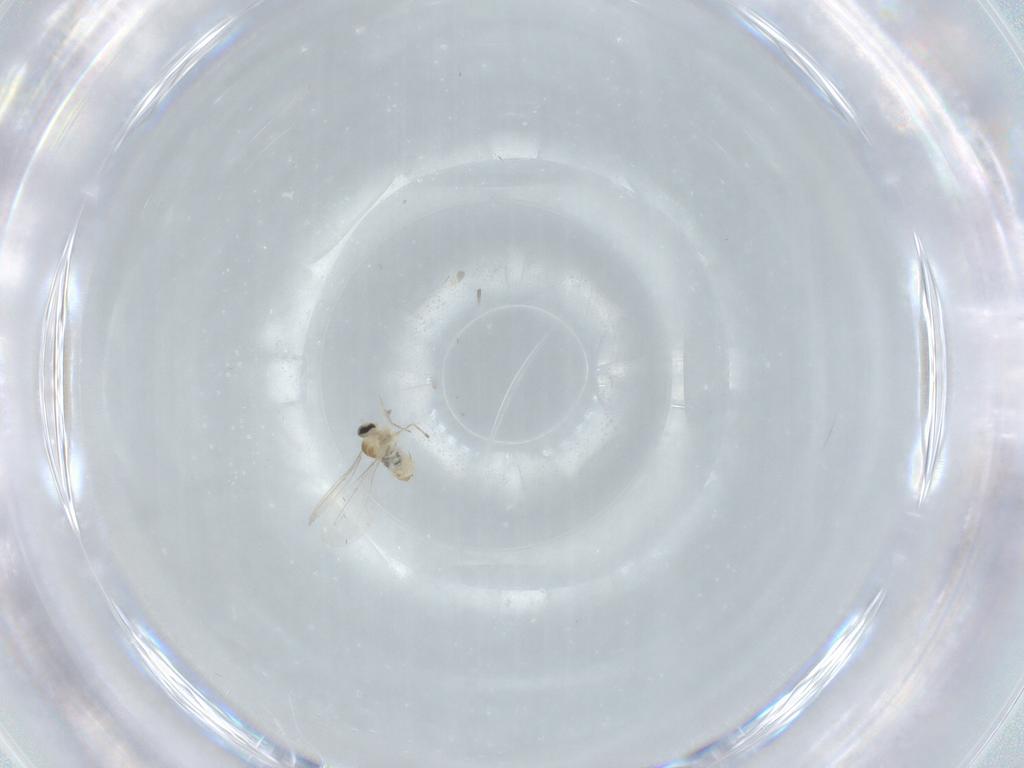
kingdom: Animalia
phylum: Arthropoda
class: Insecta
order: Diptera
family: Cecidomyiidae
